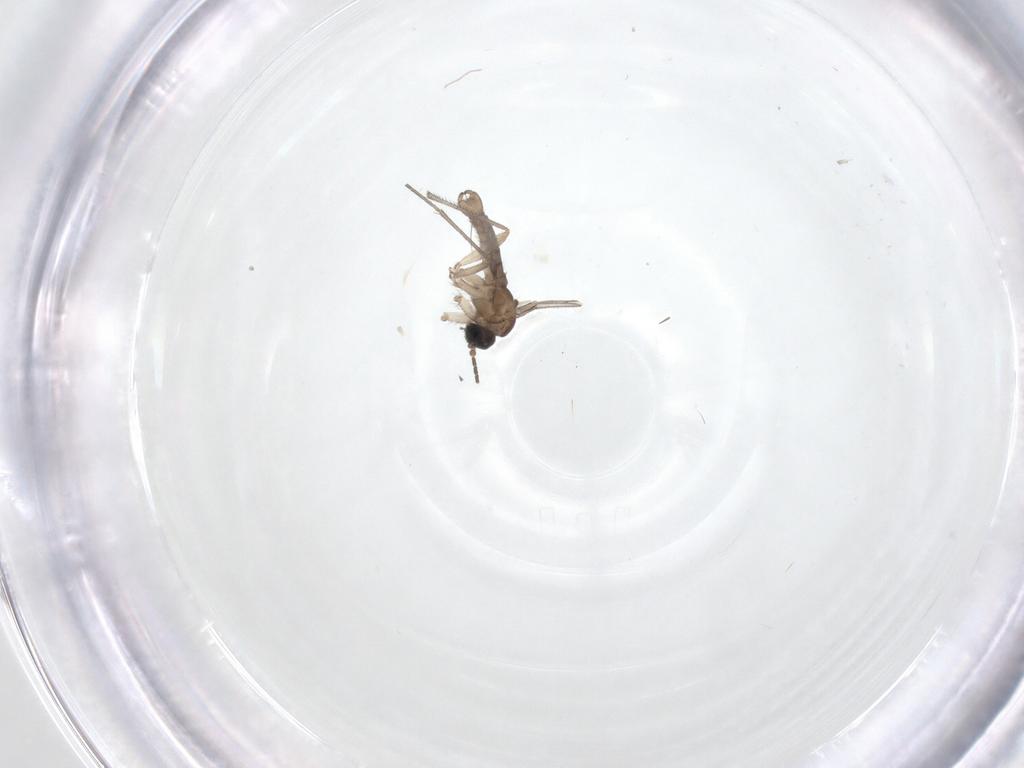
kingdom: Animalia
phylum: Arthropoda
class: Insecta
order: Diptera
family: Sciaridae
